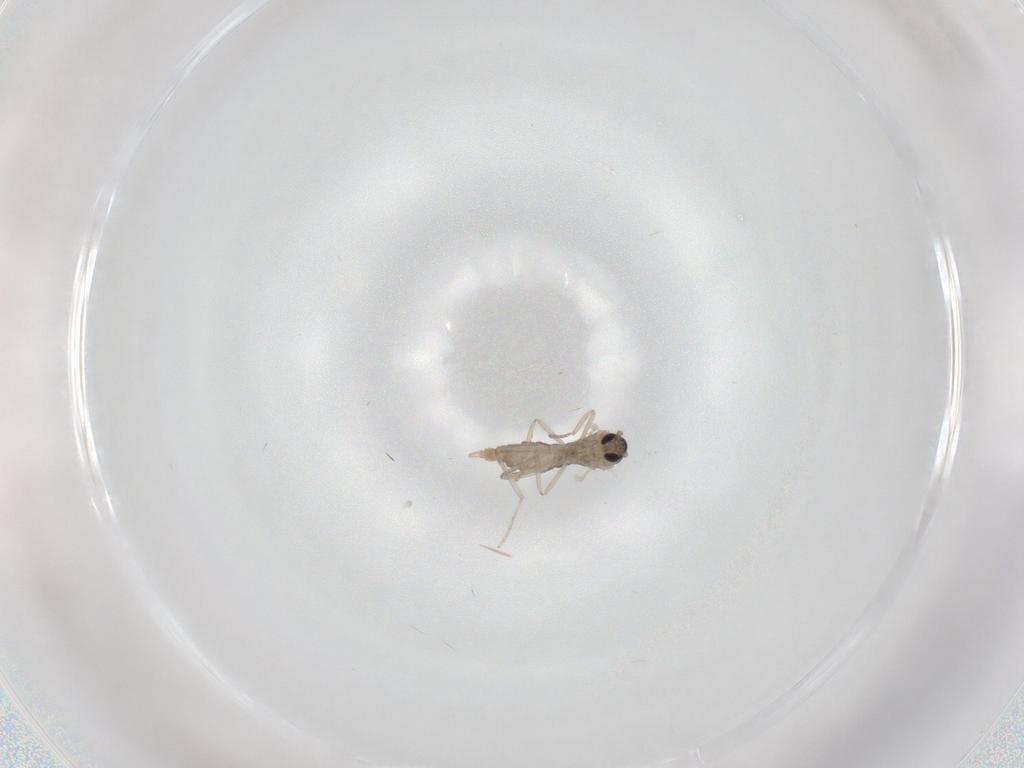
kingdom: Animalia
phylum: Arthropoda
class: Insecta
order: Diptera
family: Cecidomyiidae
